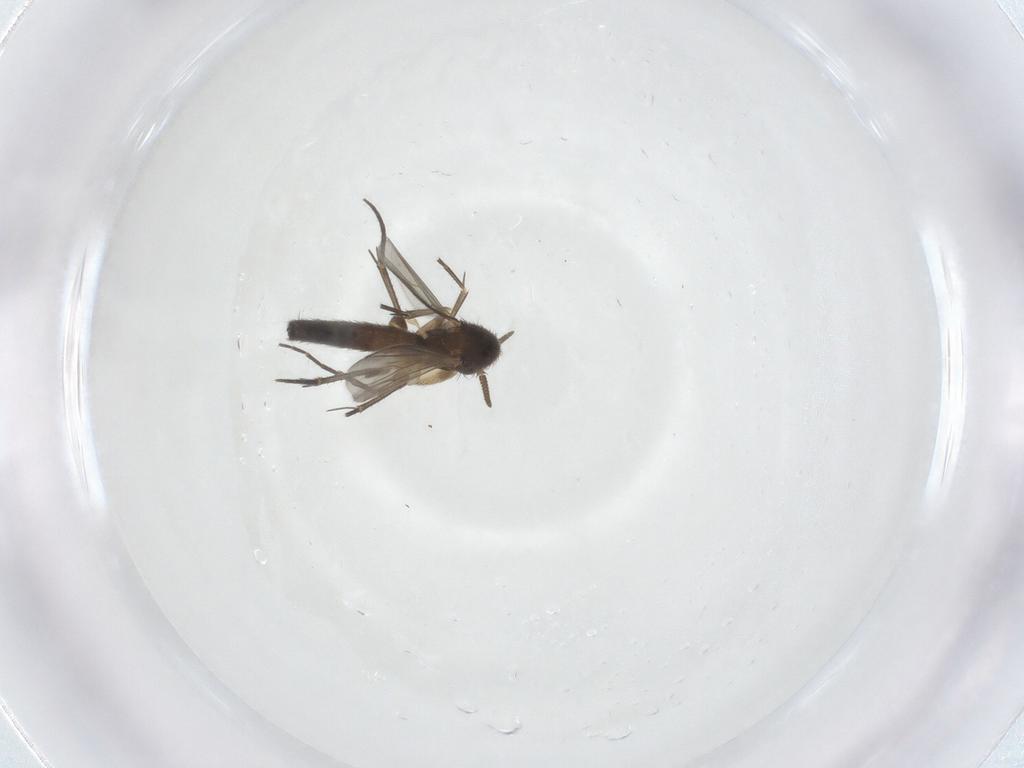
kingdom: Animalia
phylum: Arthropoda
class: Insecta
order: Diptera
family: Mycetophilidae
